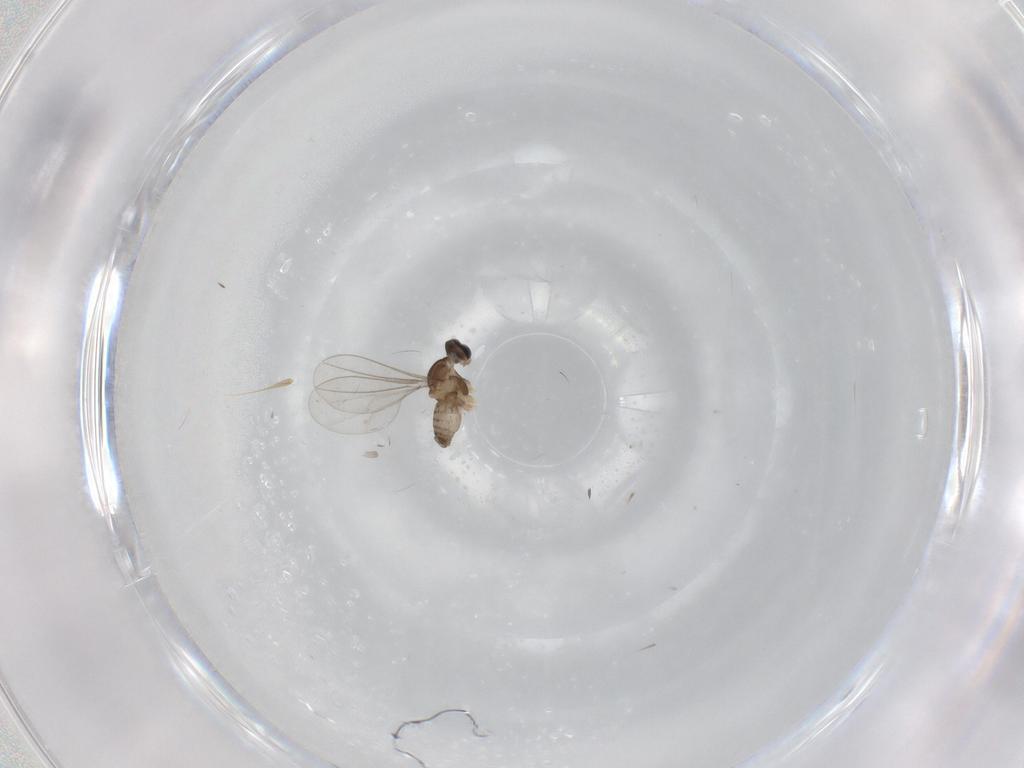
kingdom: Animalia
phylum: Arthropoda
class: Insecta
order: Diptera
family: Cecidomyiidae
